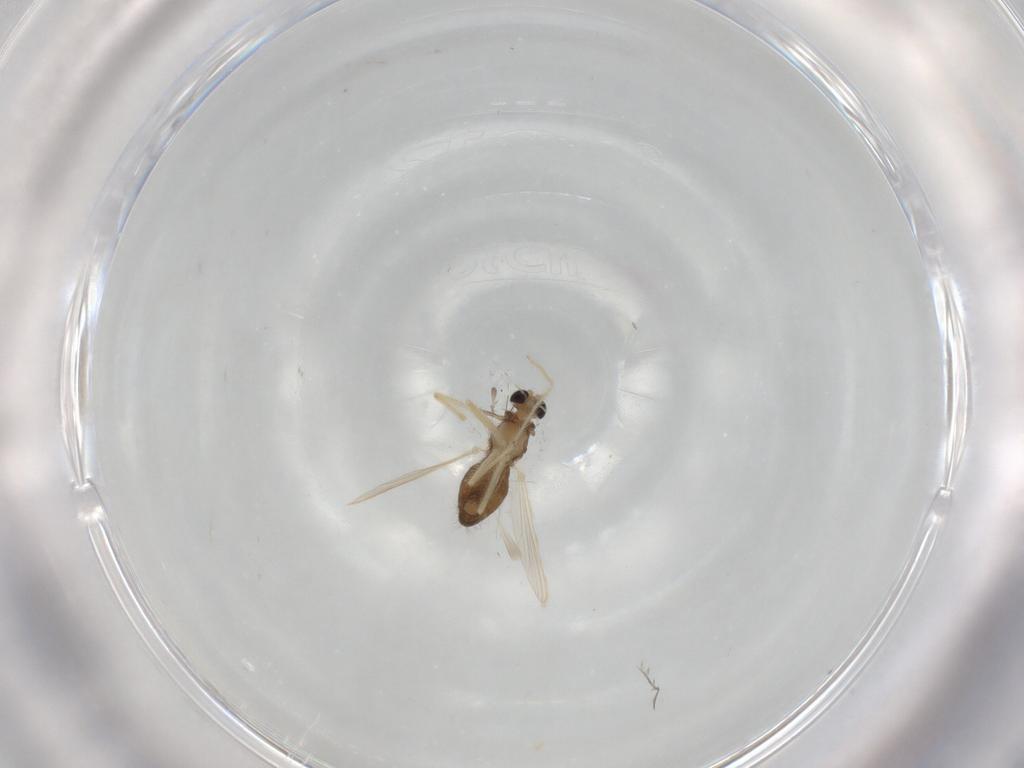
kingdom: Animalia
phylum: Arthropoda
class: Insecta
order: Diptera
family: Chironomidae
